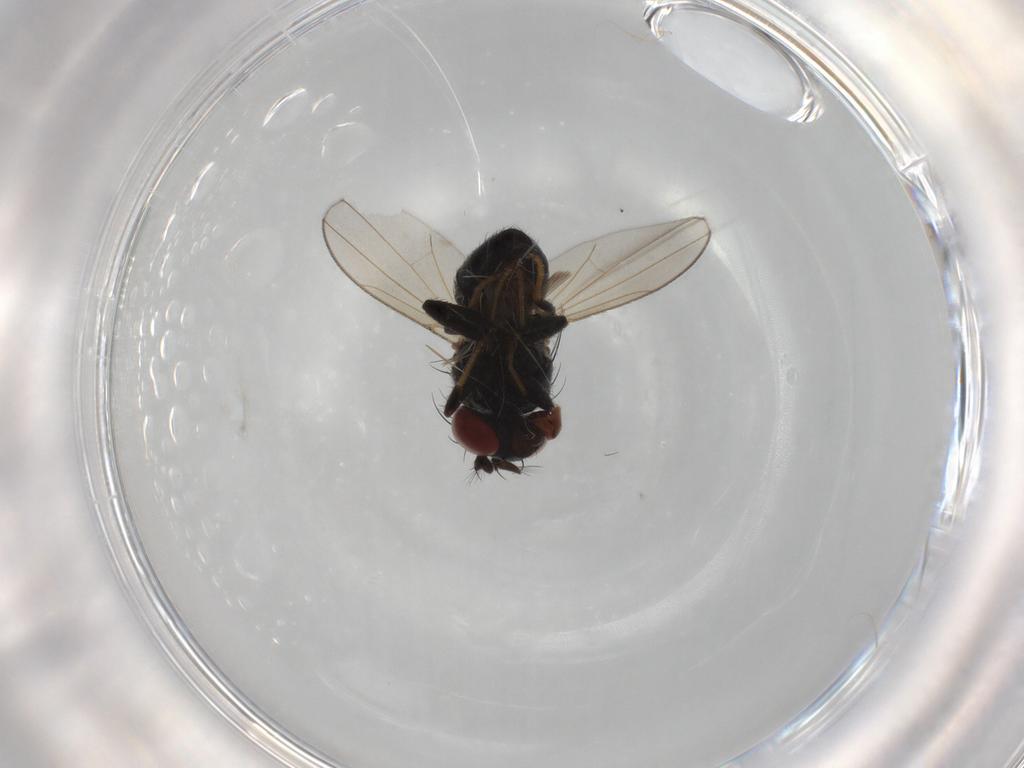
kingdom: Animalia
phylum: Arthropoda
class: Insecta
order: Diptera
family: Ephydridae
